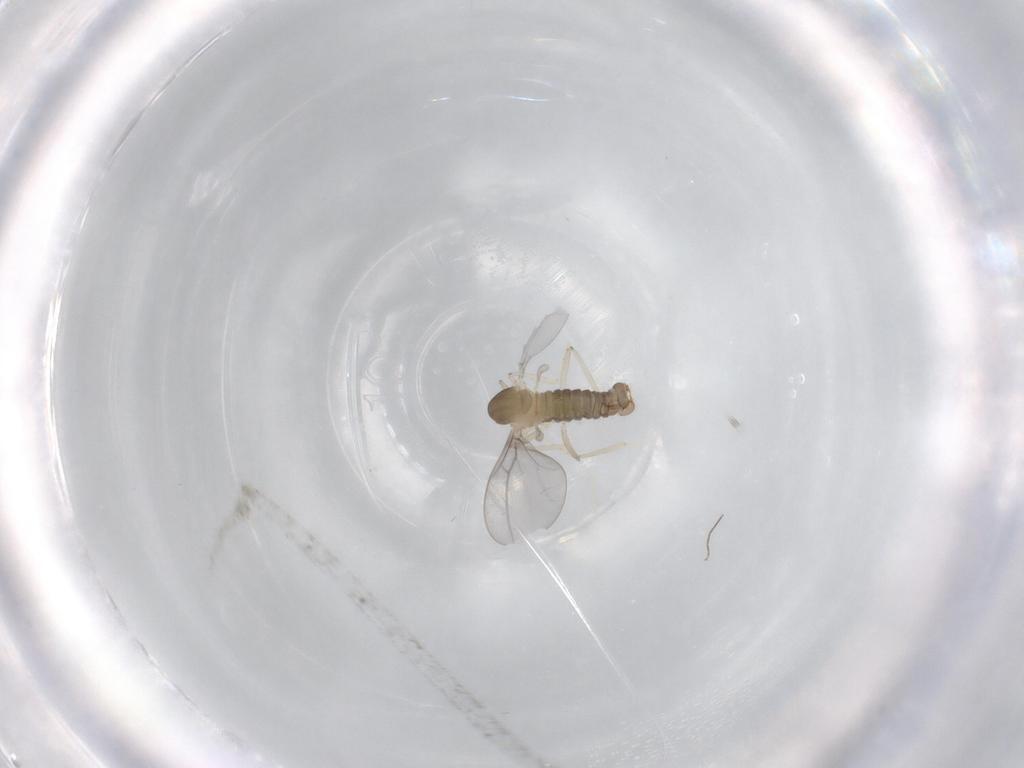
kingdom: Animalia
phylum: Arthropoda
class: Insecta
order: Diptera
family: Cecidomyiidae
